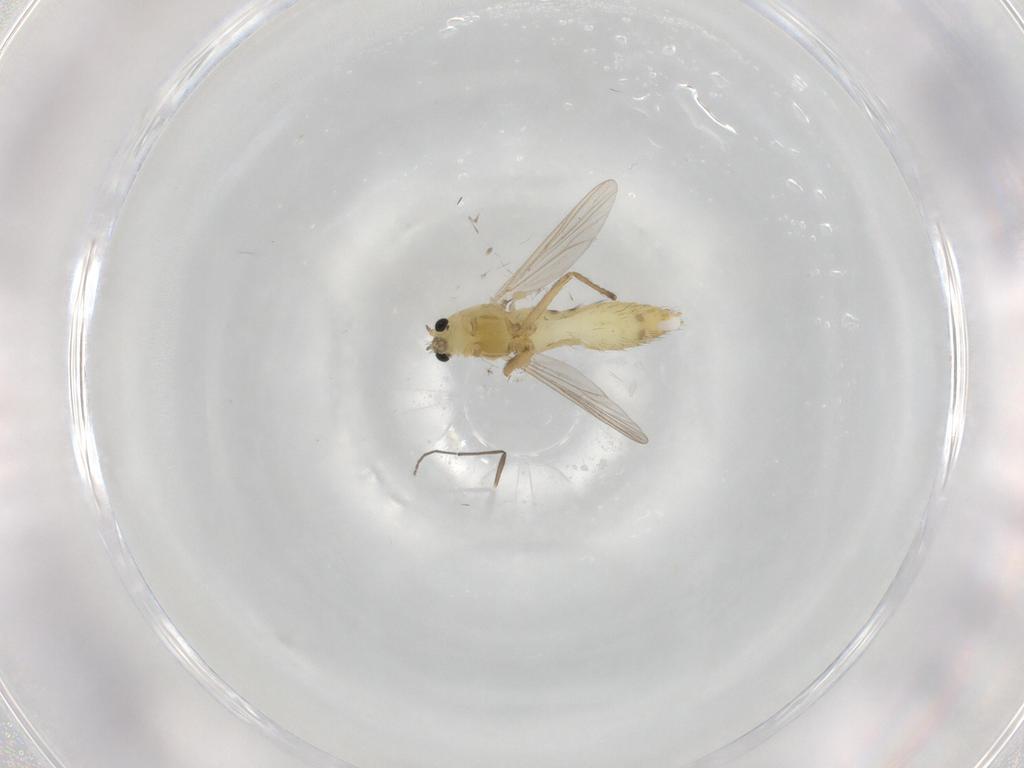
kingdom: Animalia
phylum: Arthropoda
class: Insecta
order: Diptera
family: Chironomidae
